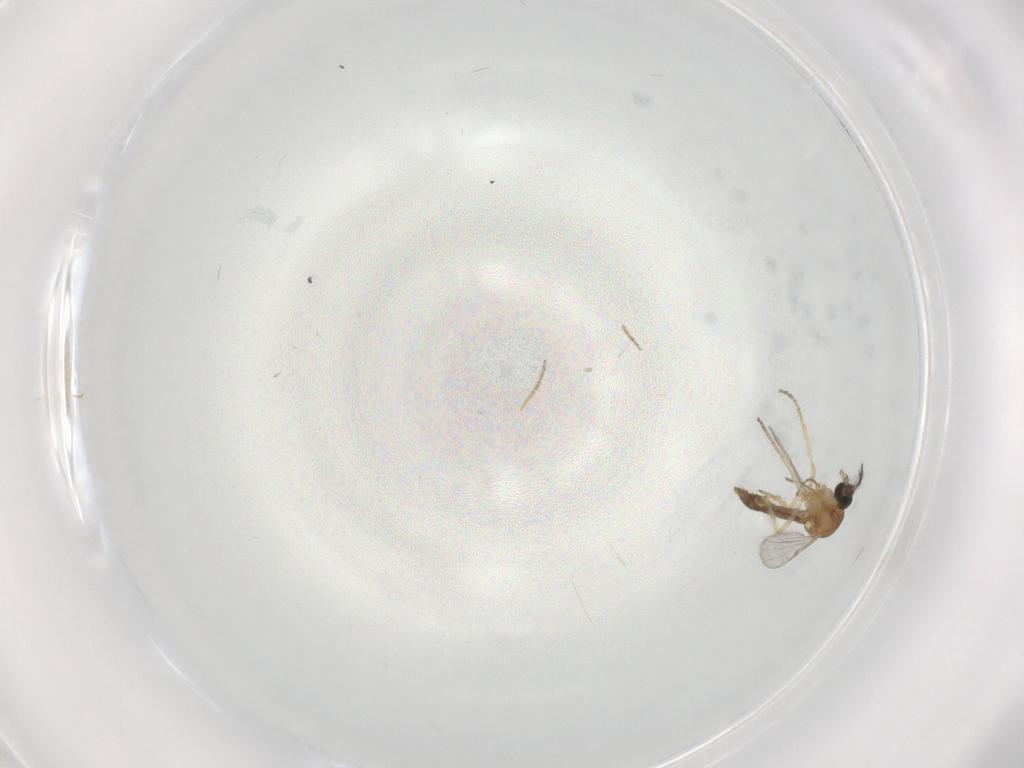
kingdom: Animalia
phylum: Arthropoda
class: Insecta
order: Diptera
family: Ceratopogonidae
